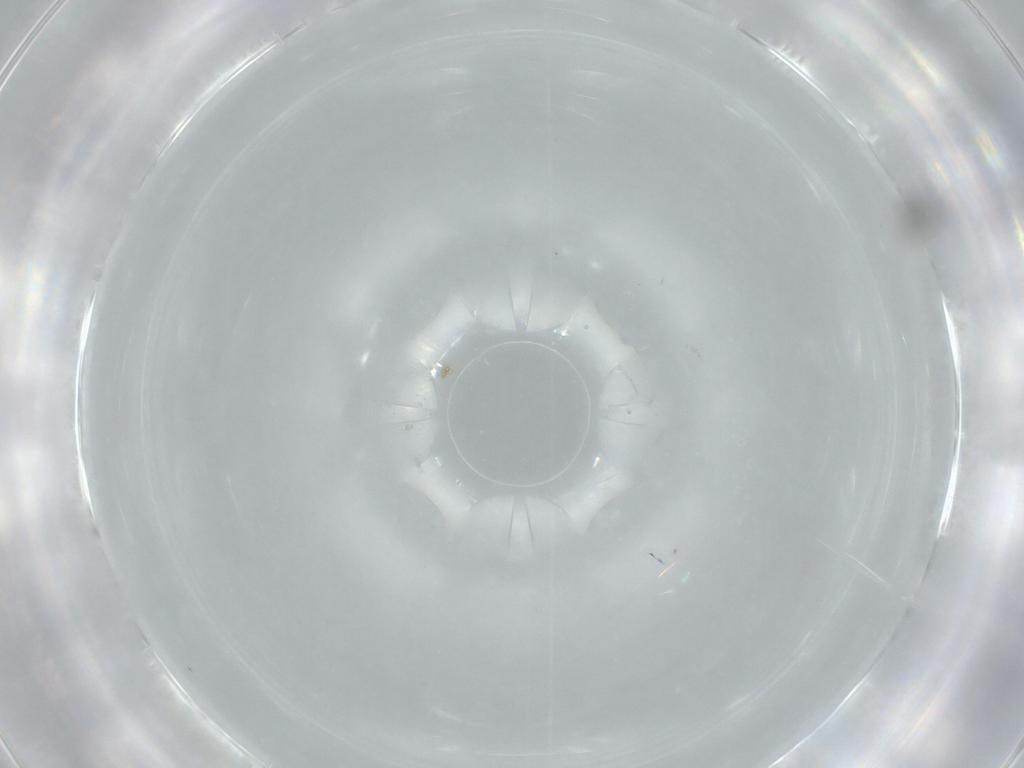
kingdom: Animalia
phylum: Arthropoda
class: Insecta
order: Hymenoptera
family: Aphelinidae
